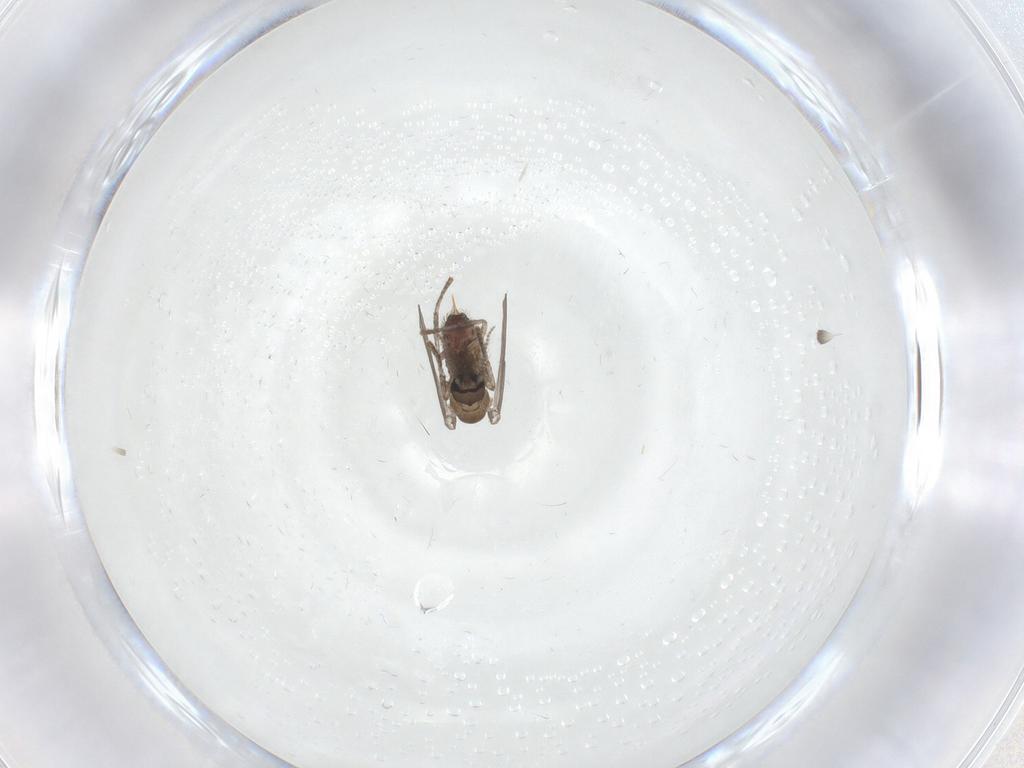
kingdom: Animalia
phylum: Arthropoda
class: Insecta
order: Diptera
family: Psychodidae
